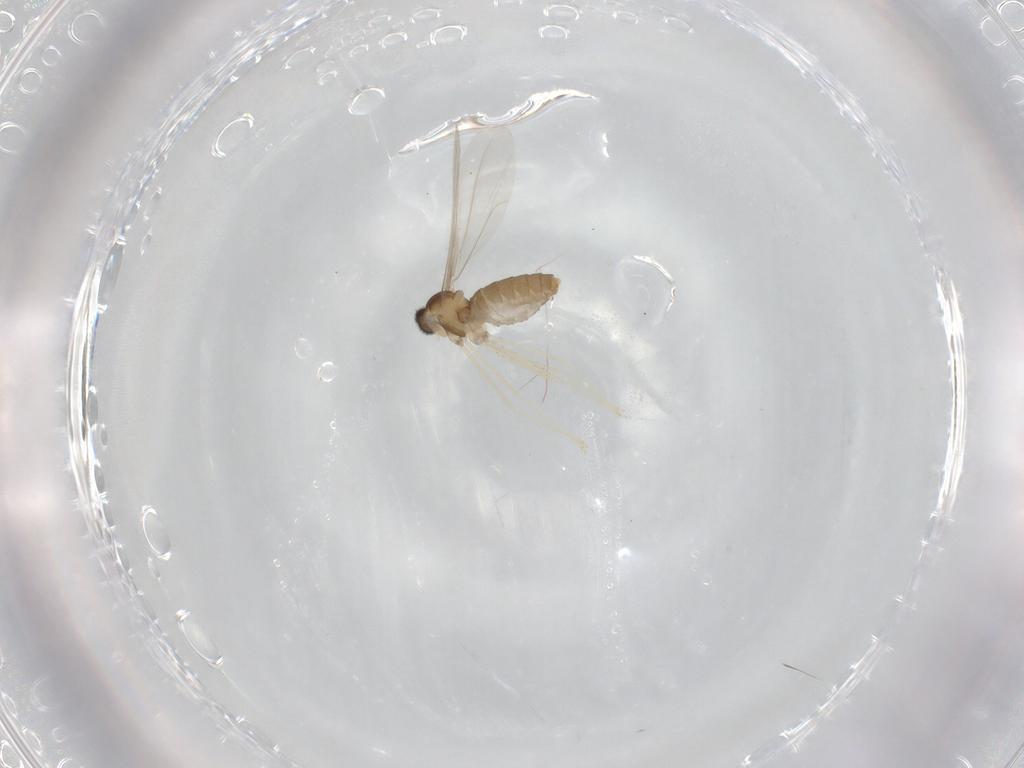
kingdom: Animalia
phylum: Arthropoda
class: Insecta
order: Diptera
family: Cecidomyiidae
